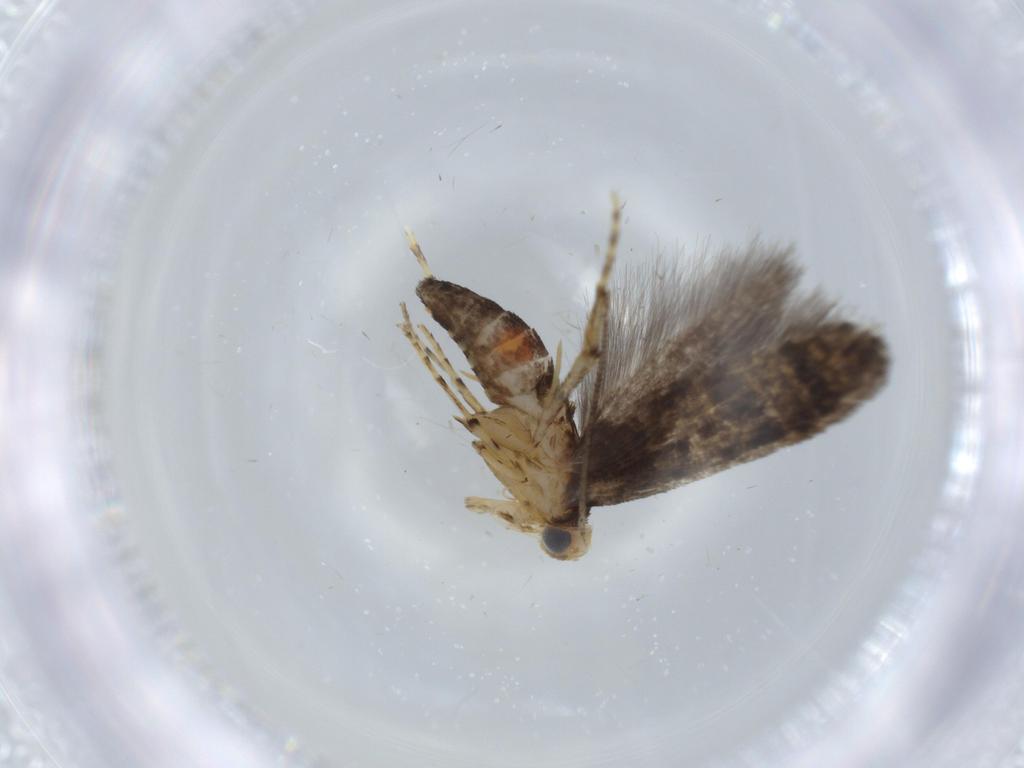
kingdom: Animalia
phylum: Arthropoda
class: Insecta
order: Lepidoptera
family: Argyresthiidae
